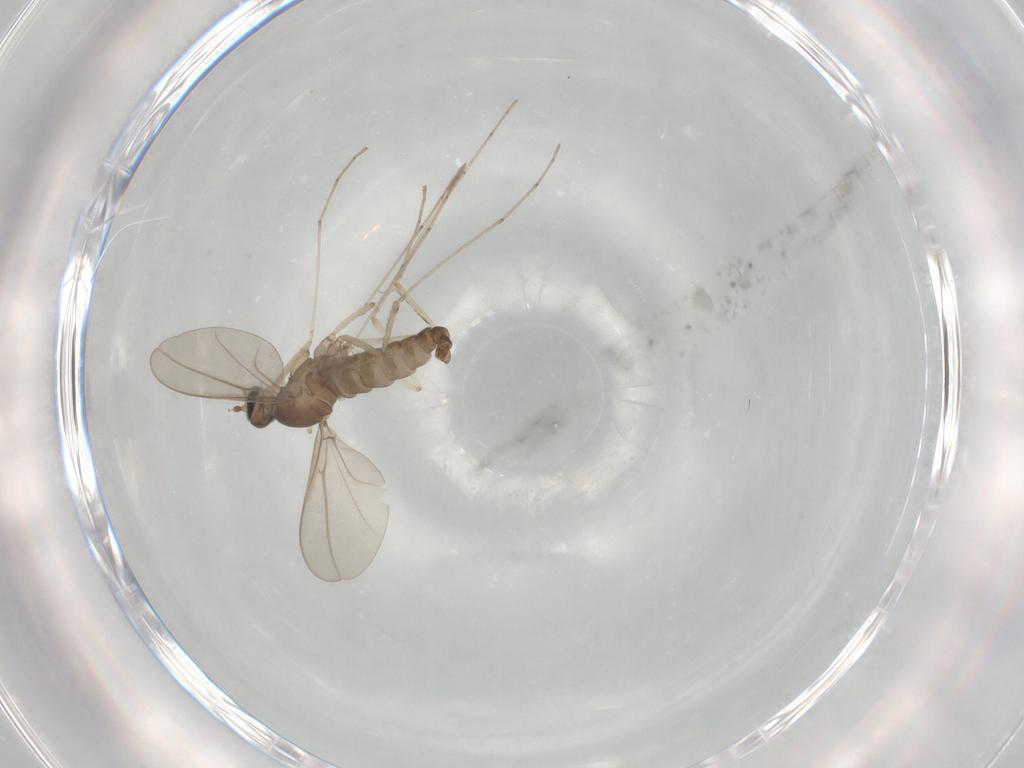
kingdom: Animalia
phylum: Arthropoda
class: Insecta
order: Diptera
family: Cecidomyiidae
